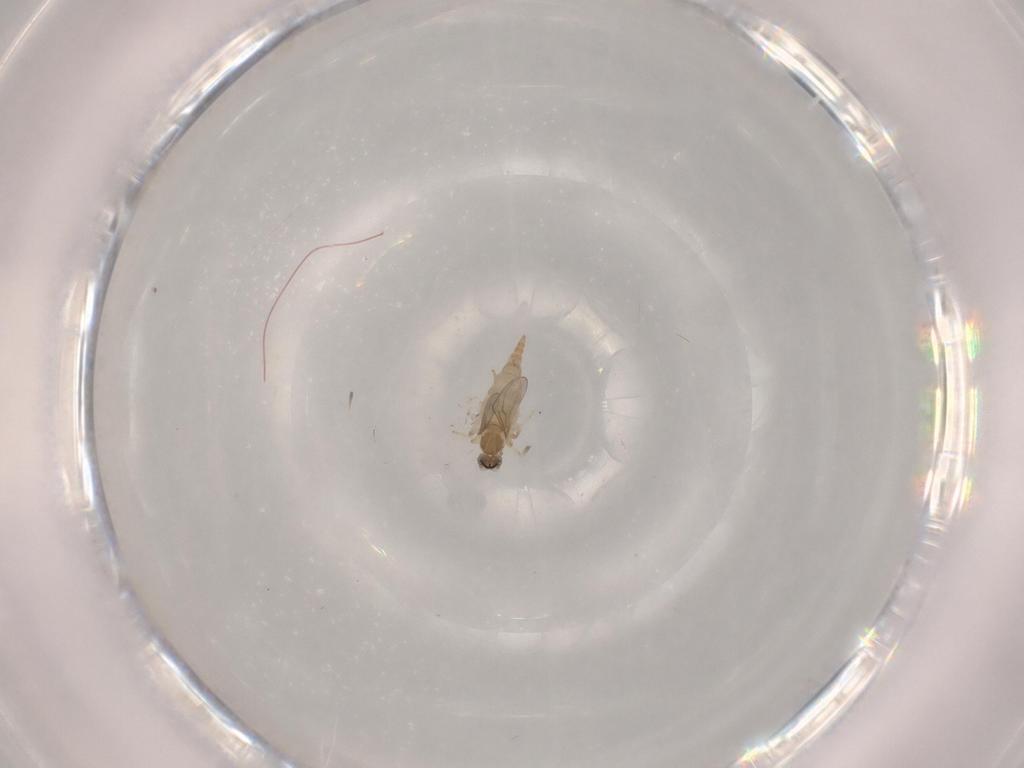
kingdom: Animalia
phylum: Arthropoda
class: Insecta
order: Diptera
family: Cecidomyiidae
